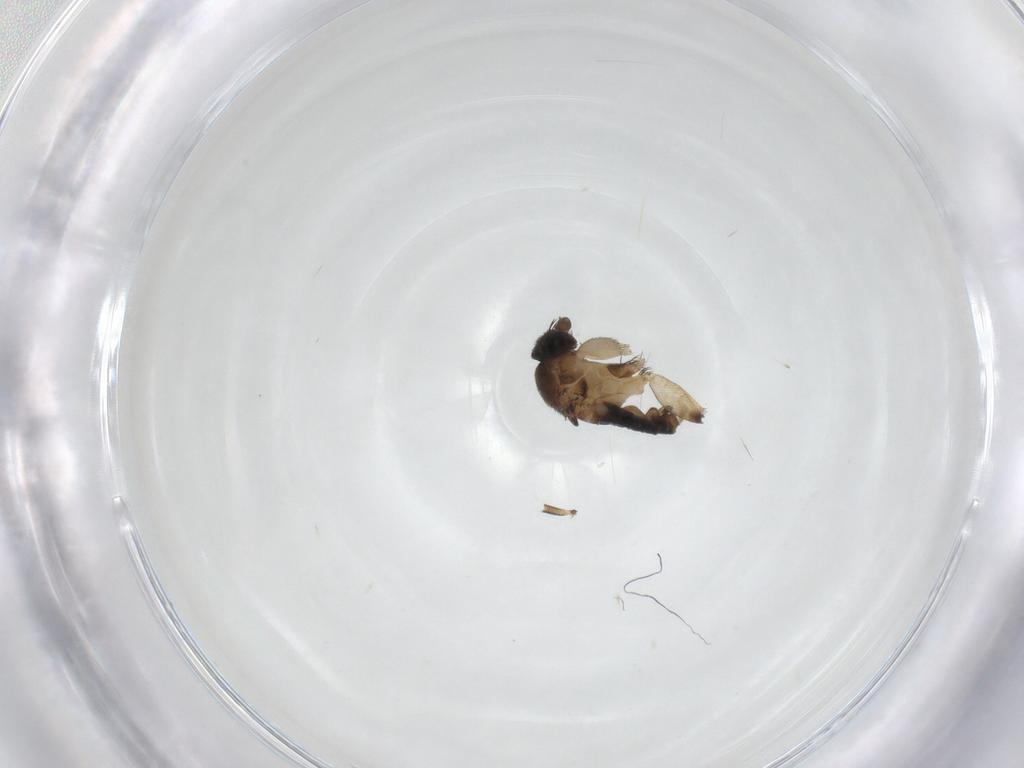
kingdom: Animalia
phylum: Arthropoda
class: Insecta
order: Diptera
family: Phoridae
